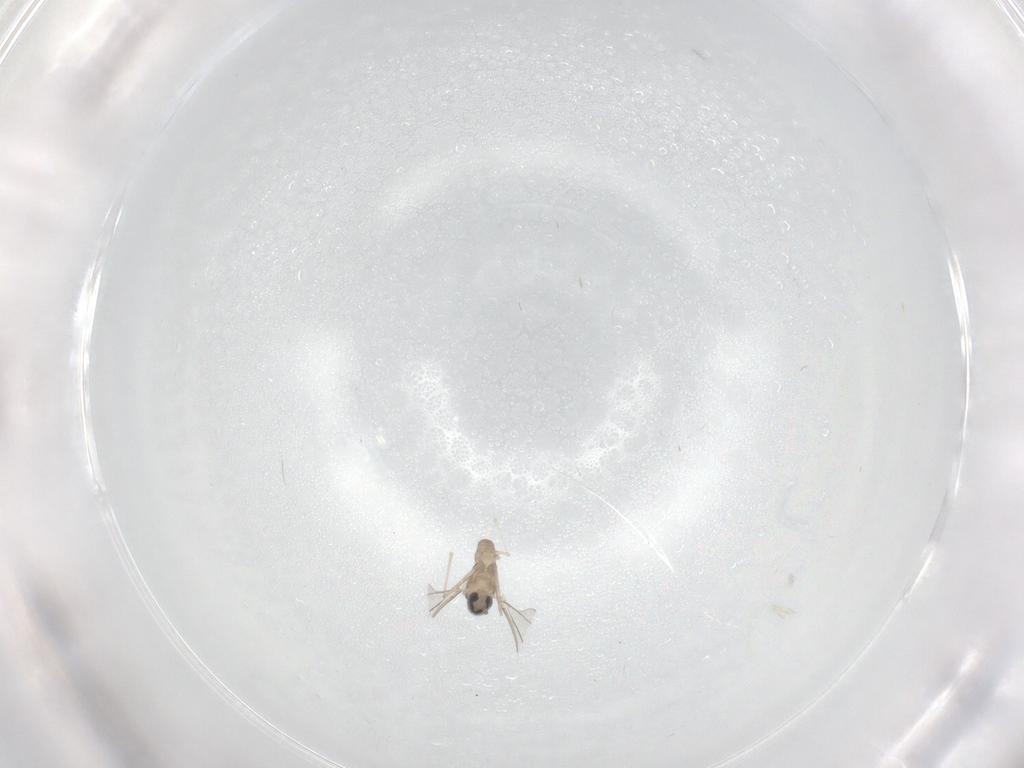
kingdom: Animalia
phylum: Arthropoda
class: Insecta
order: Diptera
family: Cecidomyiidae
